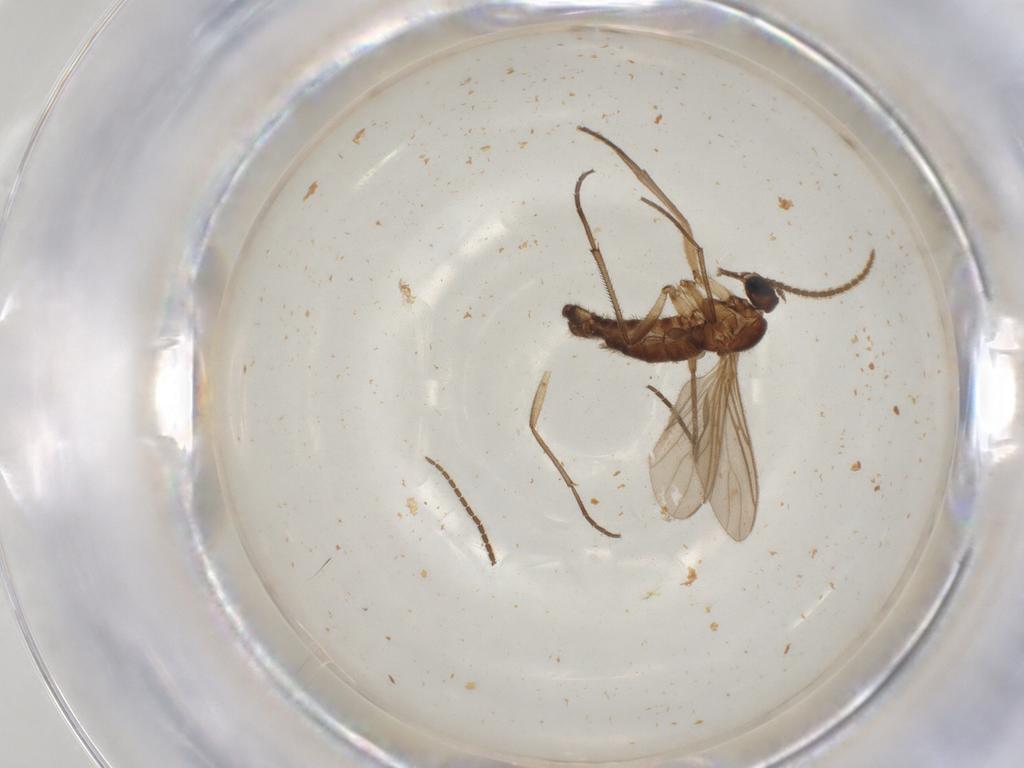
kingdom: Animalia
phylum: Arthropoda
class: Insecta
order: Diptera
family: Sciaridae
